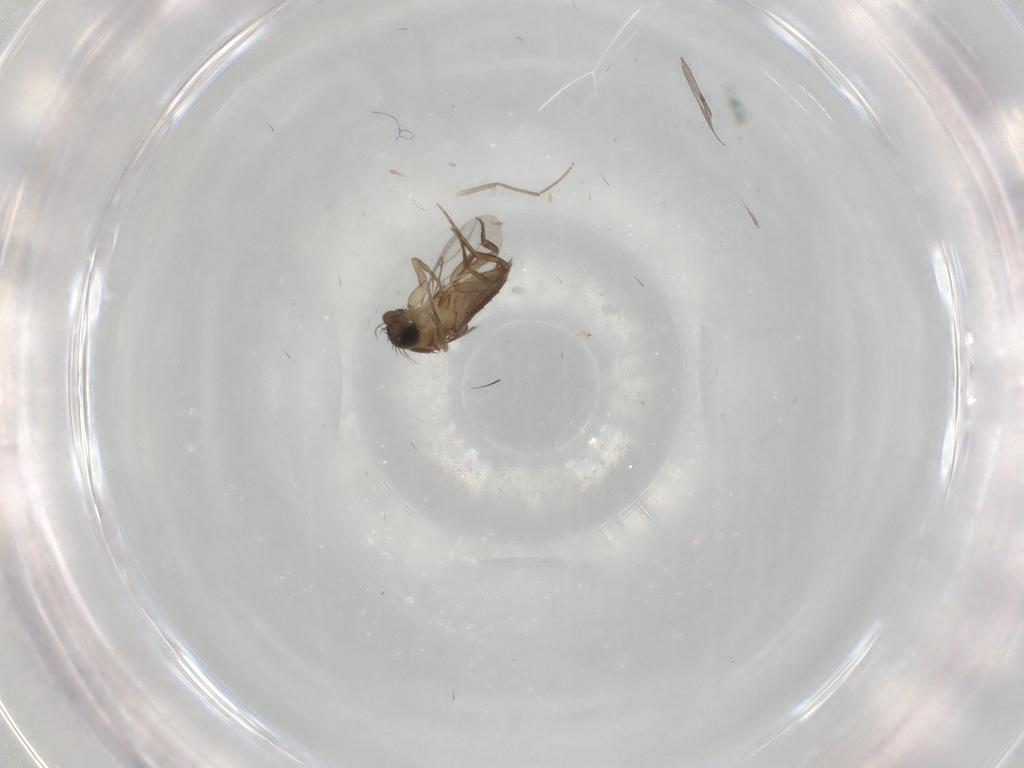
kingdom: Animalia
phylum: Arthropoda
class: Insecta
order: Diptera
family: Phoridae
